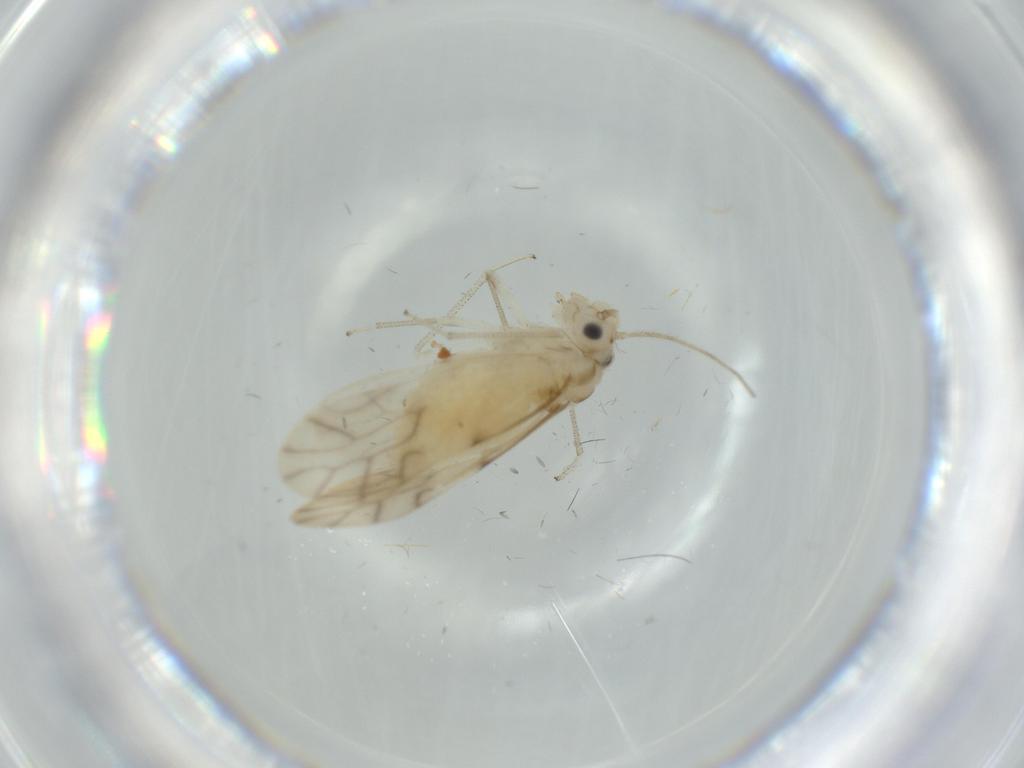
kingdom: Animalia
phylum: Arthropoda
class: Insecta
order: Psocodea
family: Caeciliusidae
